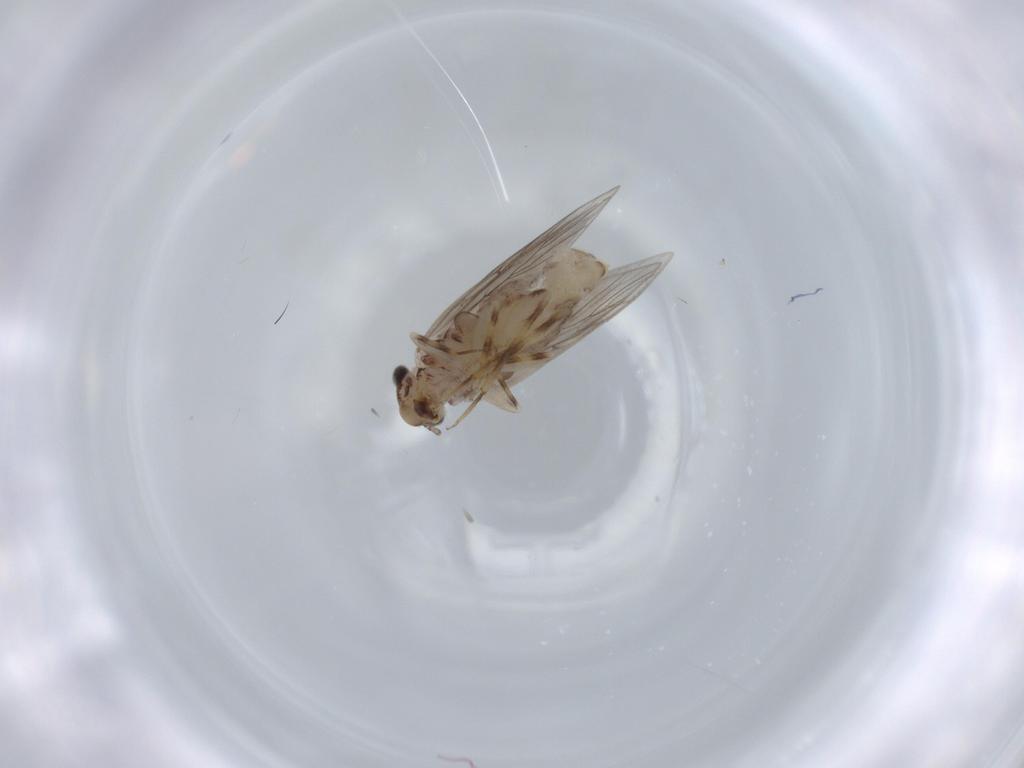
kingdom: Animalia
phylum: Arthropoda
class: Insecta
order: Psocodea
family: Lepidopsocidae
